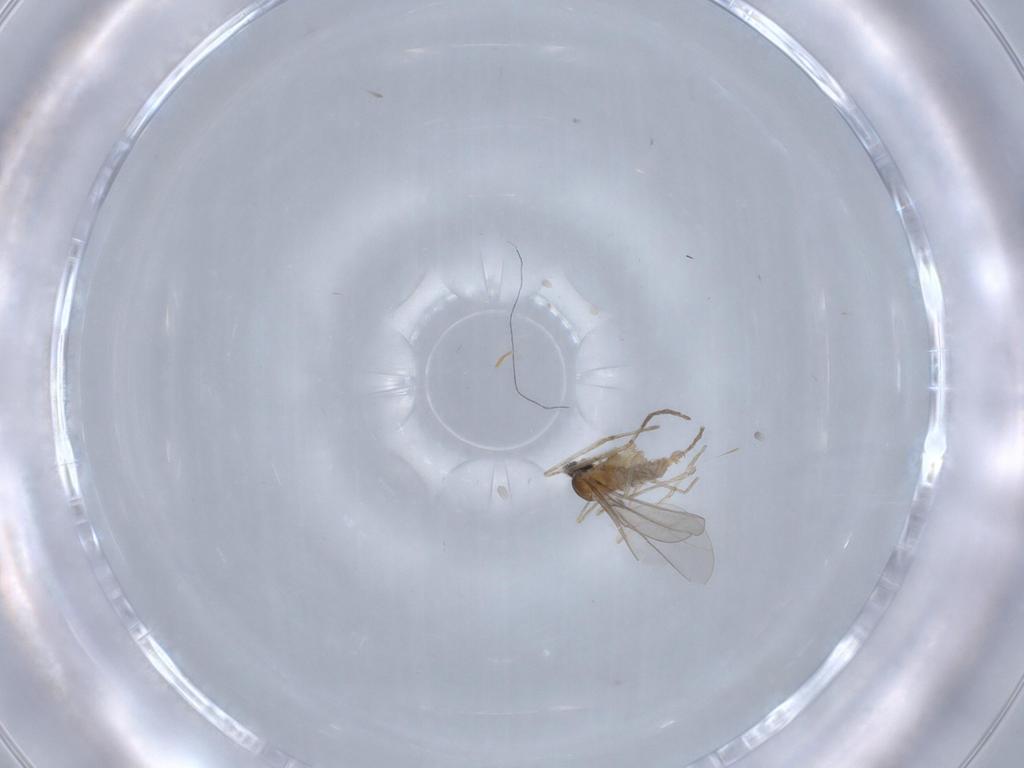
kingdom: Animalia
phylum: Arthropoda
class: Insecta
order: Diptera
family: Cecidomyiidae
